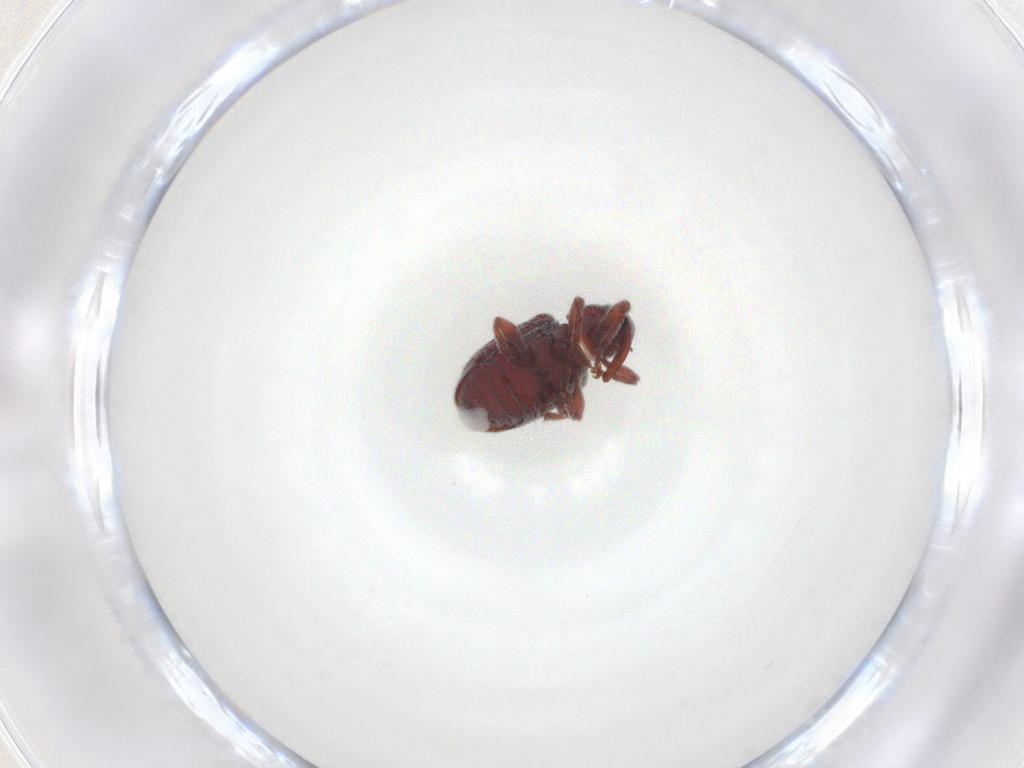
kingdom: Animalia
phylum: Arthropoda
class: Insecta
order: Coleoptera
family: Curculionidae
